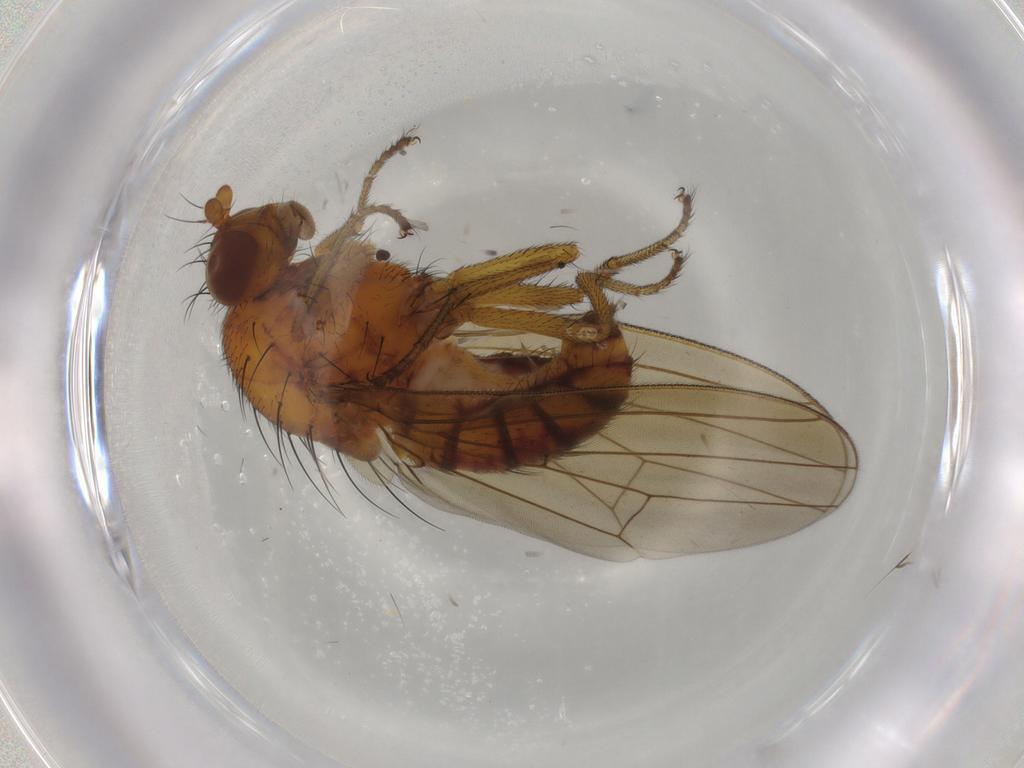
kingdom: Animalia
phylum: Arthropoda
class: Insecta
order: Diptera
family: Lauxaniidae
